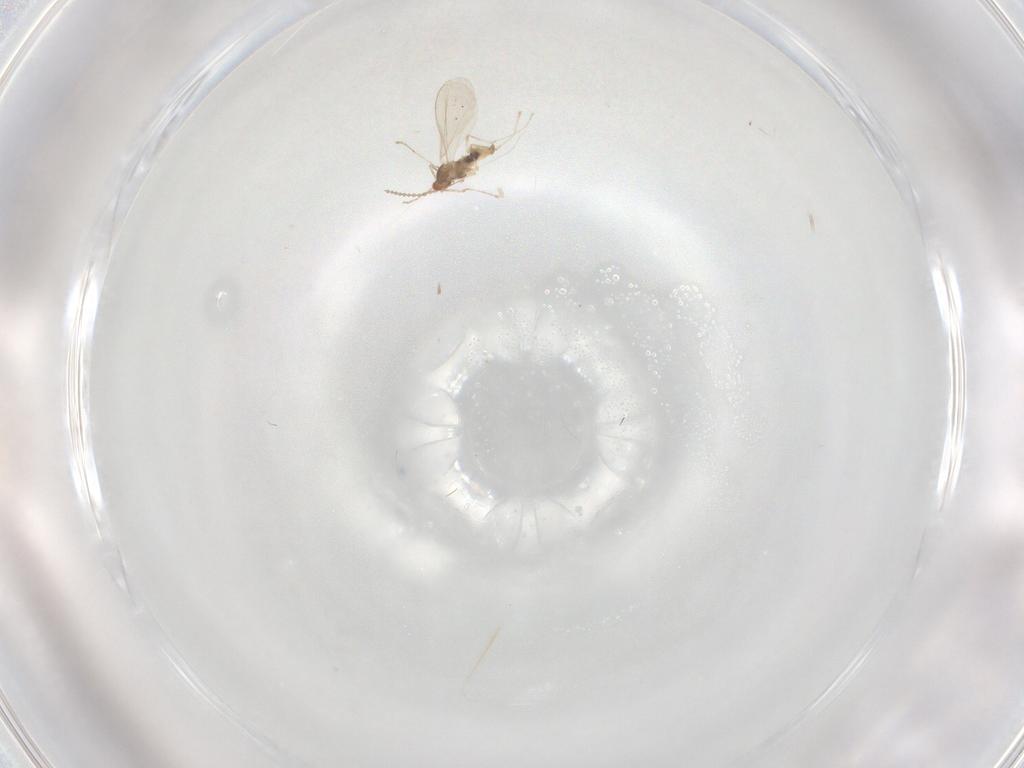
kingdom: Animalia
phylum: Arthropoda
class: Insecta
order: Diptera
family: Cecidomyiidae
